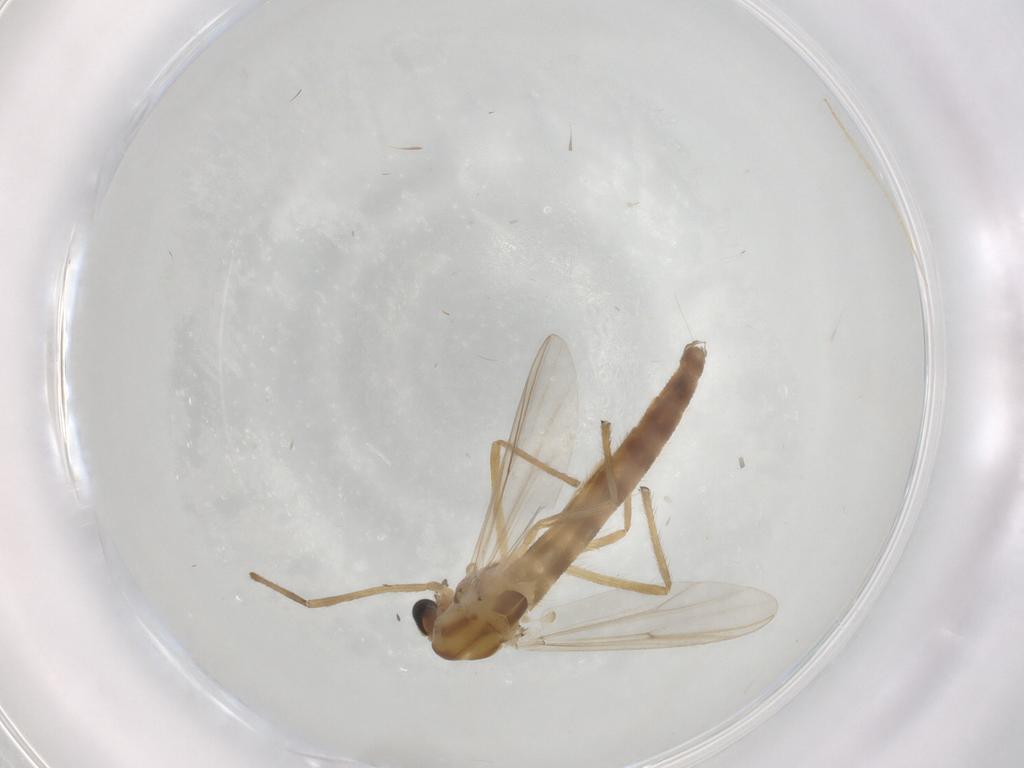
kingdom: Animalia
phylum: Arthropoda
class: Insecta
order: Diptera
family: Chironomidae
